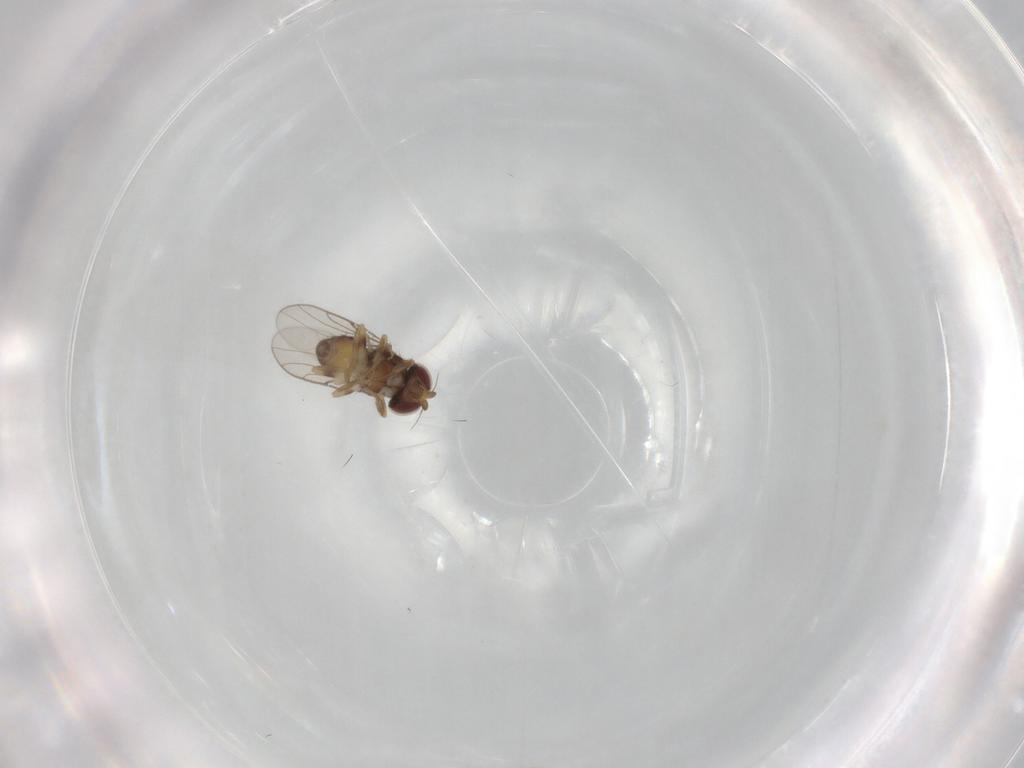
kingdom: Animalia
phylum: Arthropoda
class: Insecta
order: Diptera
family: Chloropidae
